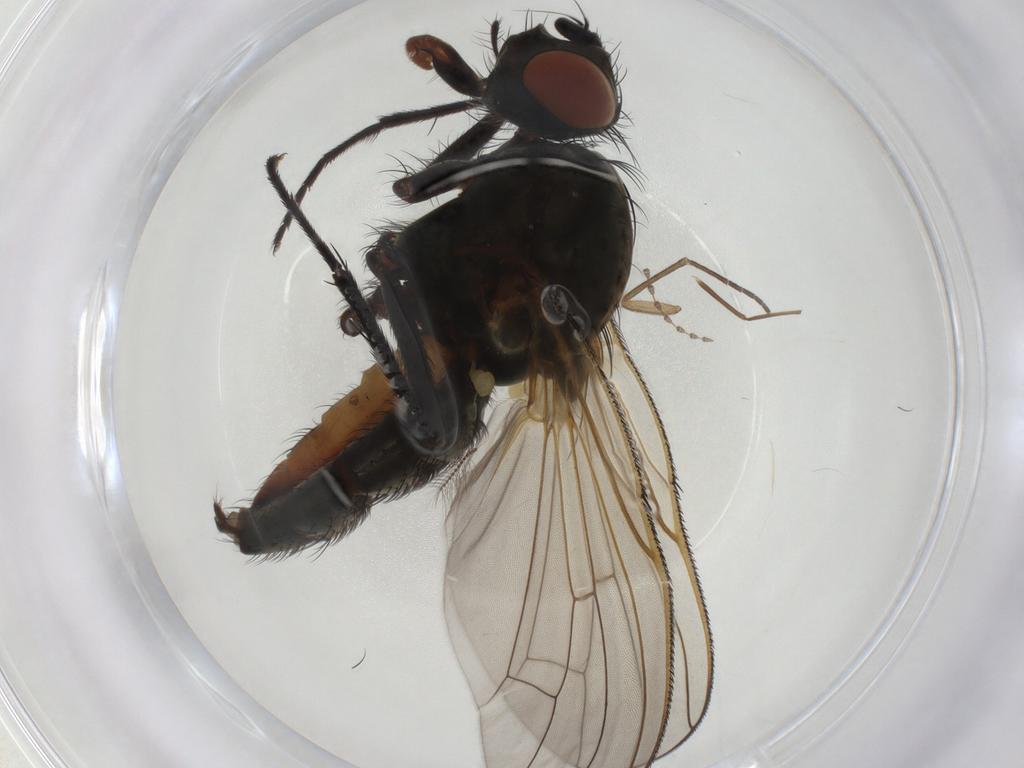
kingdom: Animalia
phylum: Arthropoda
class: Insecta
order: Diptera
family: Anthomyiidae
